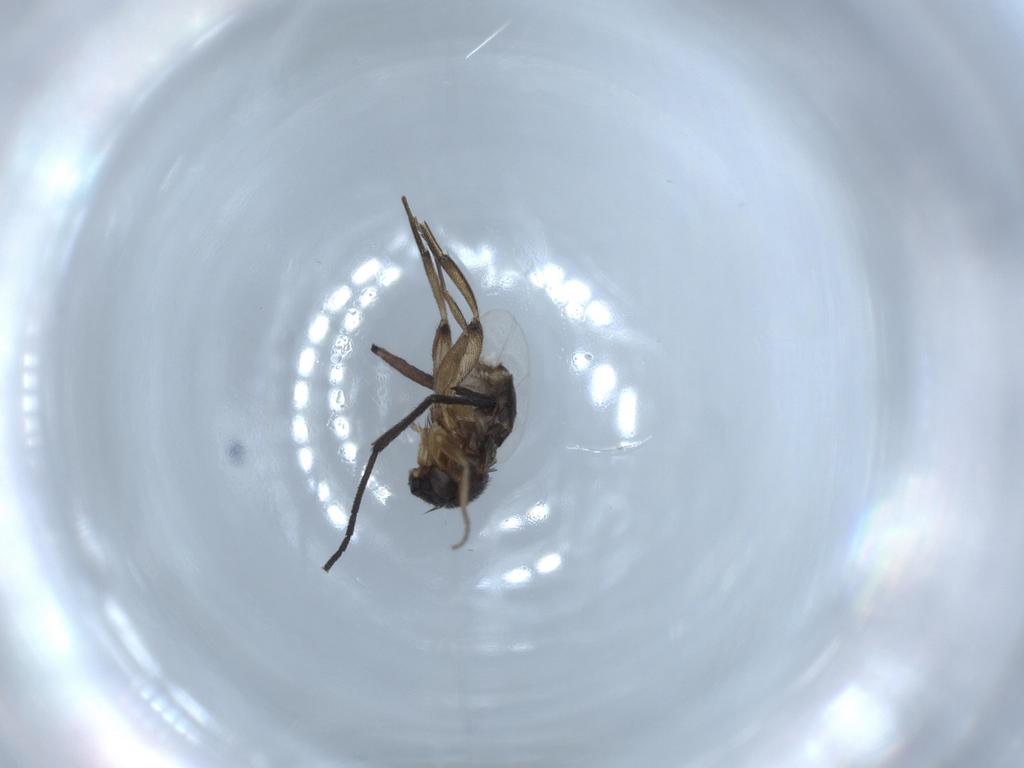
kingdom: Animalia
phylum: Arthropoda
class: Insecta
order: Diptera
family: Phoridae
